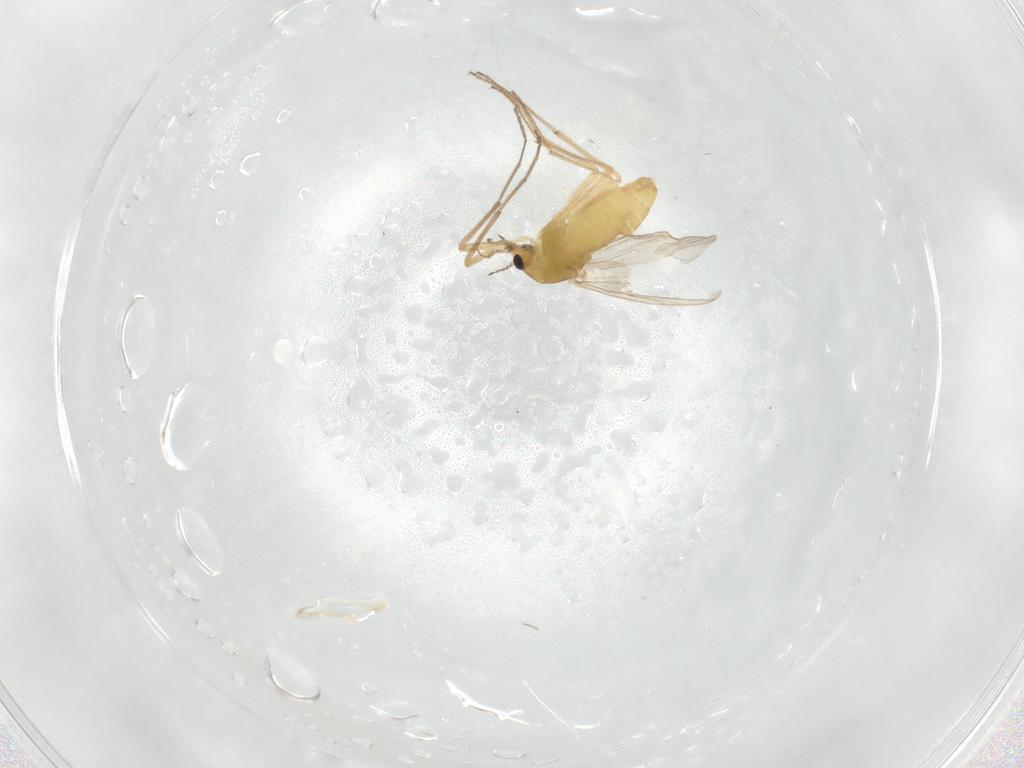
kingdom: Animalia
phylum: Arthropoda
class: Insecta
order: Diptera
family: Chironomidae
